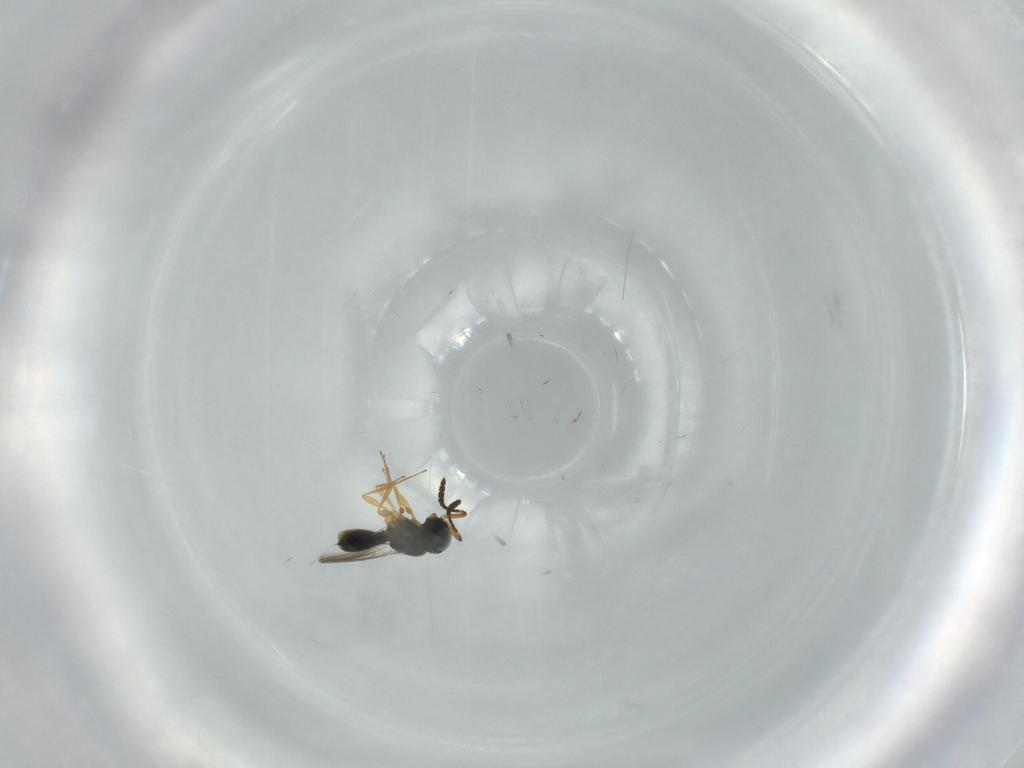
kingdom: Animalia
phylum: Arthropoda
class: Insecta
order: Hymenoptera
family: Scelionidae
